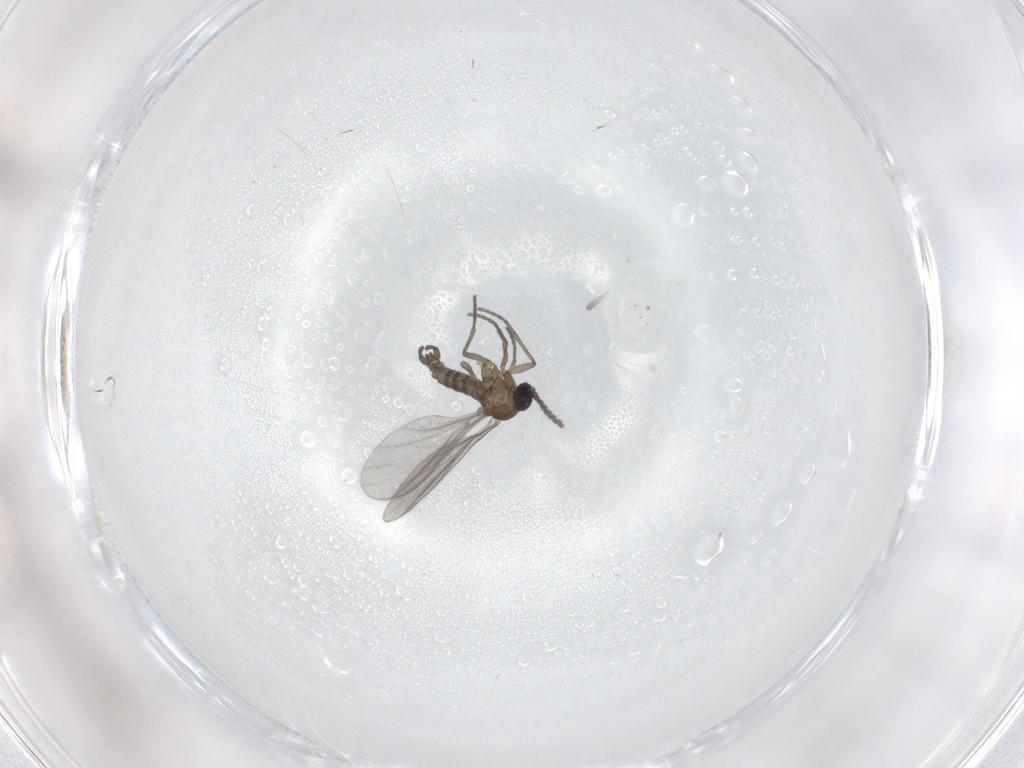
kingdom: Animalia
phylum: Arthropoda
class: Insecta
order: Diptera
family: Sciaridae
